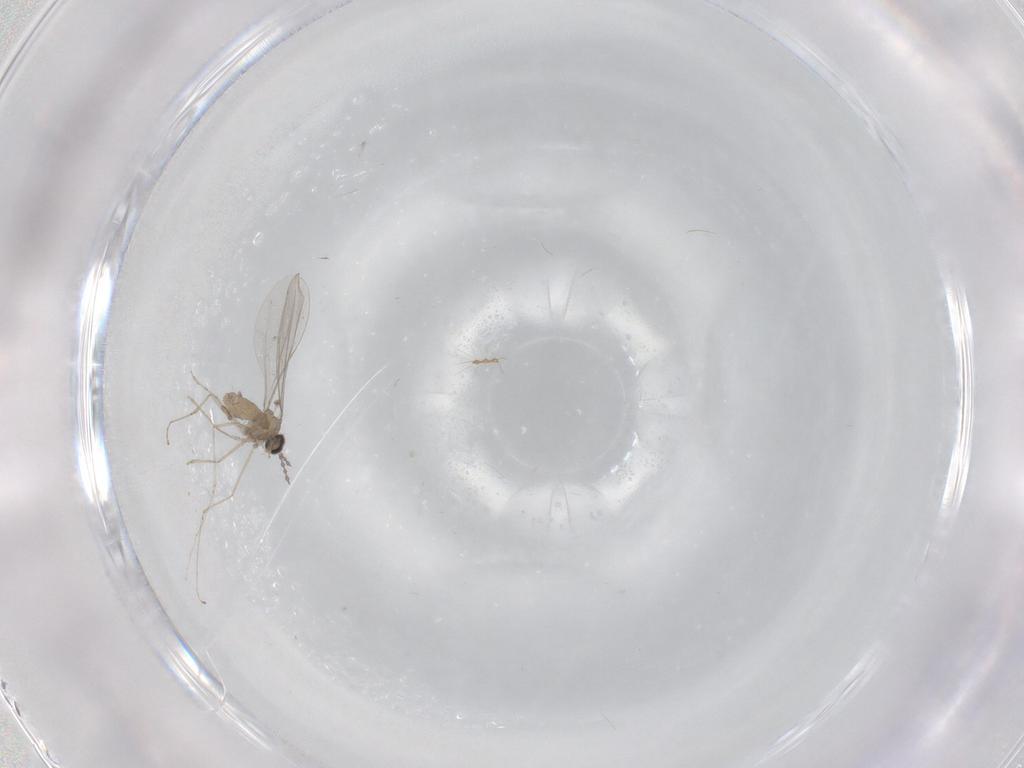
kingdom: Animalia
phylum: Arthropoda
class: Insecta
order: Diptera
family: Cecidomyiidae
